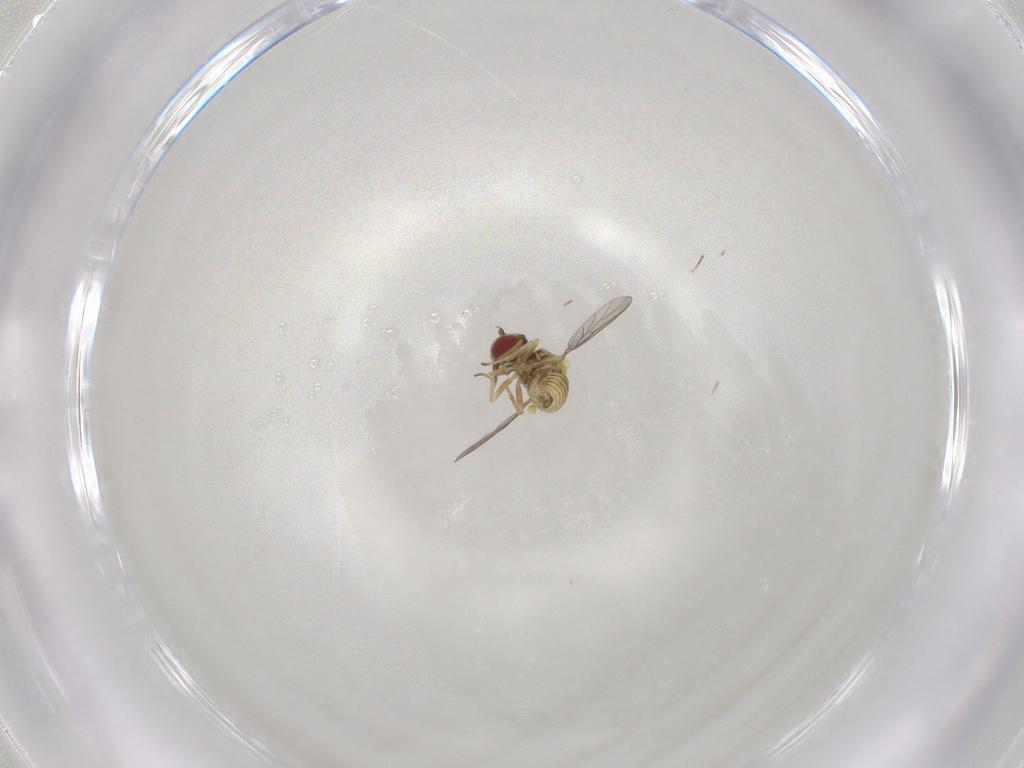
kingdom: Animalia
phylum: Arthropoda
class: Insecta
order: Diptera
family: Mythicomyiidae
